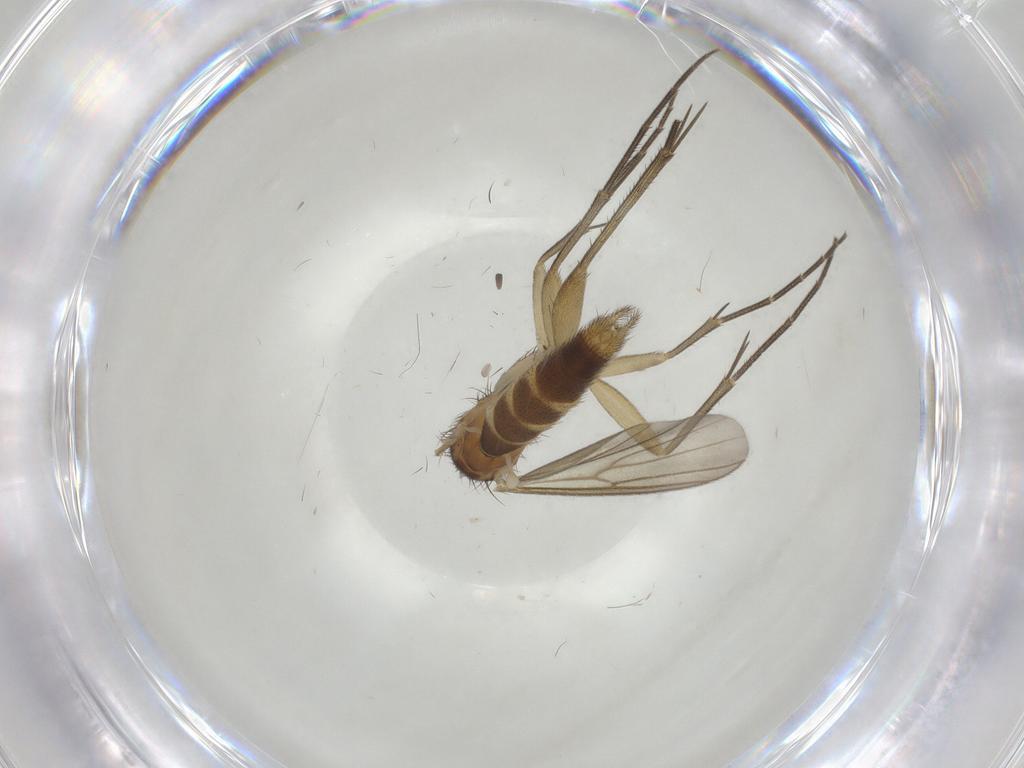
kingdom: Animalia
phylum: Arthropoda
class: Insecta
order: Diptera
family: Mycetophilidae
